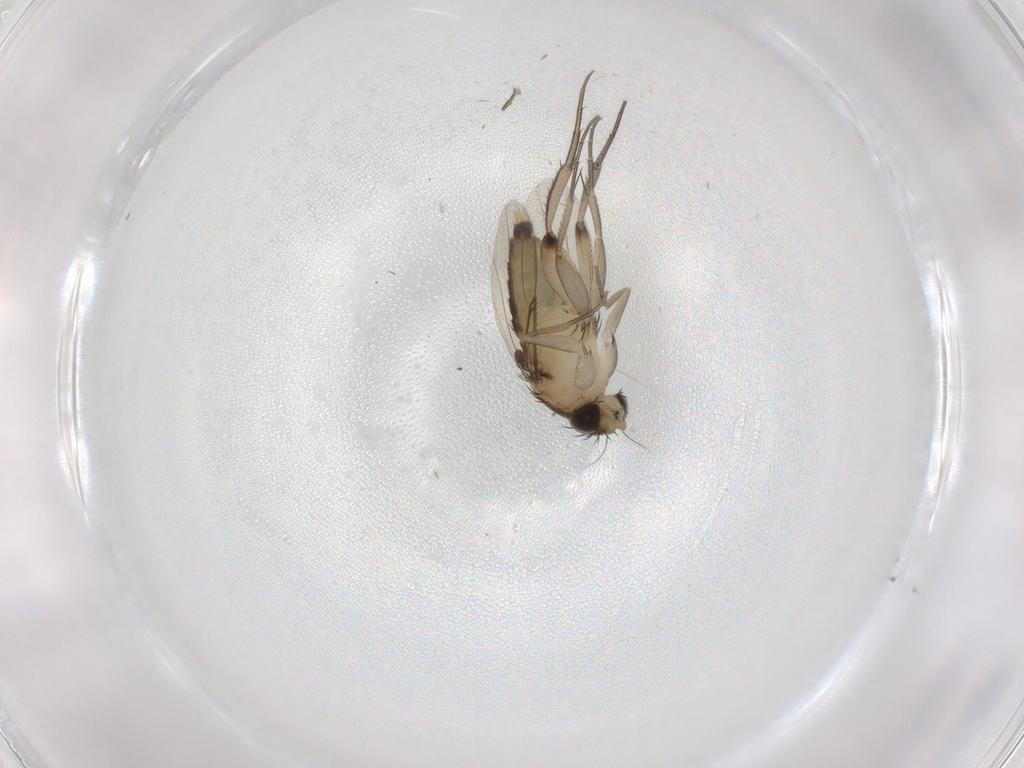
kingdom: Animalia
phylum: Arthropoda
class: Insecta
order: Diptera
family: Phoridae
